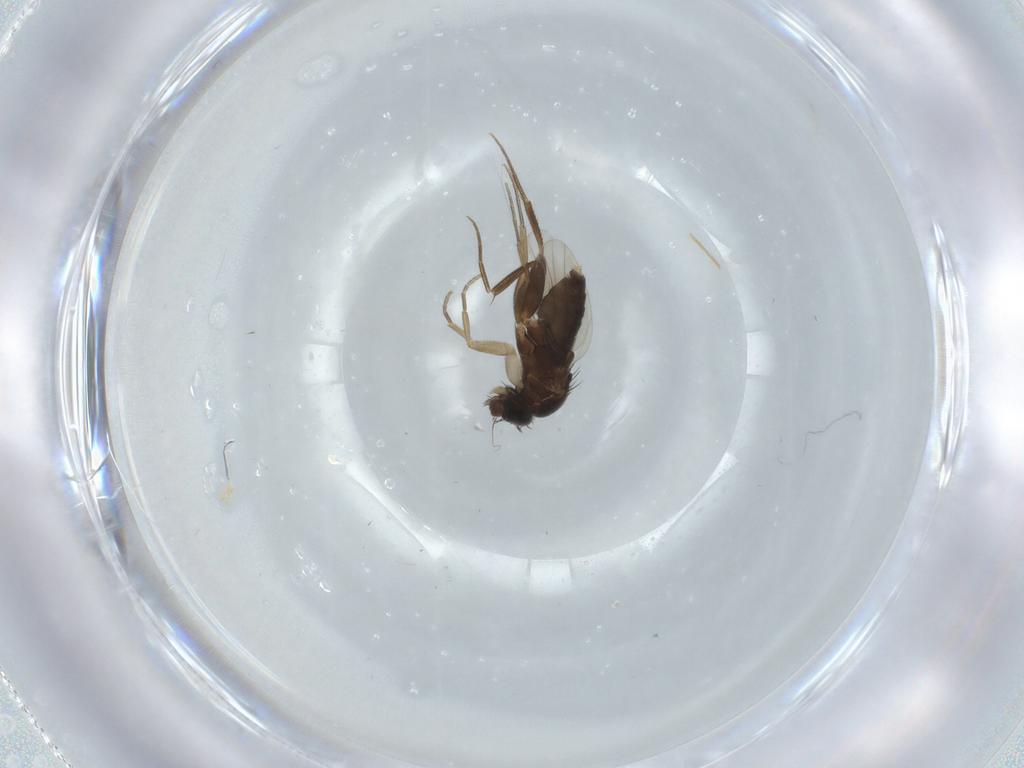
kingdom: Animalia
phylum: Arthropoda
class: Insecta
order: Diptera
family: Phoridae
